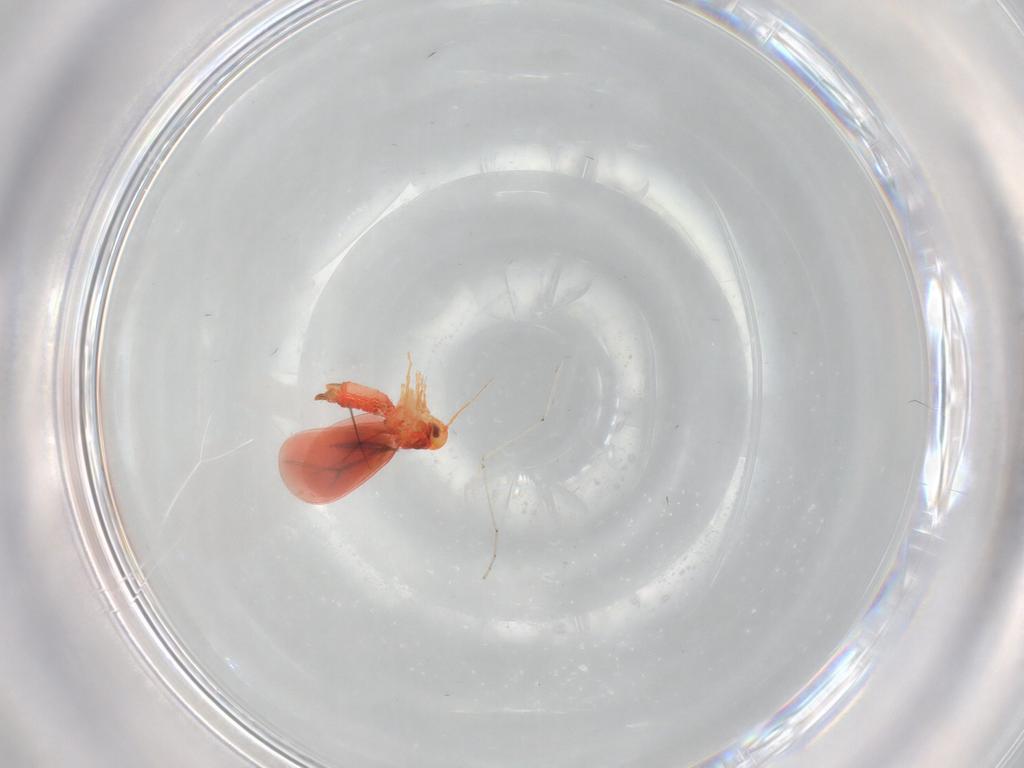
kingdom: Animalia
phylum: Arthropoda
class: Insecta
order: Hemiptera
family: Aleyrodidae
